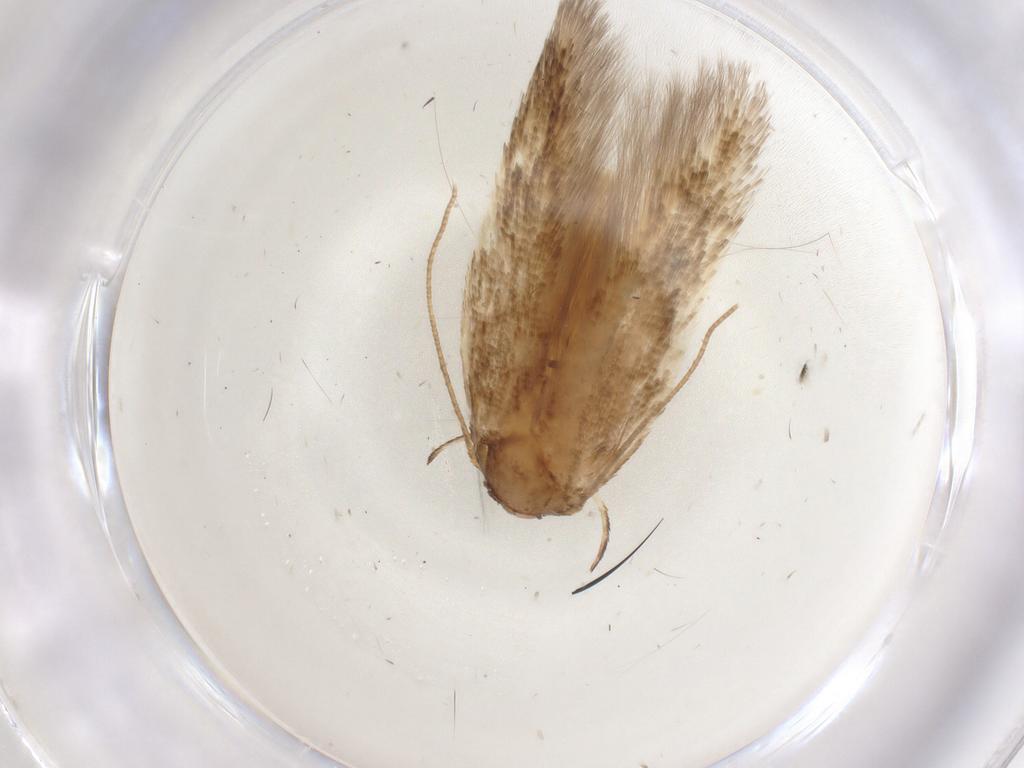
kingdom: Animalia
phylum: Arthropoda
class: Insecta
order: Lepidoptera
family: Cosmopterigidae
